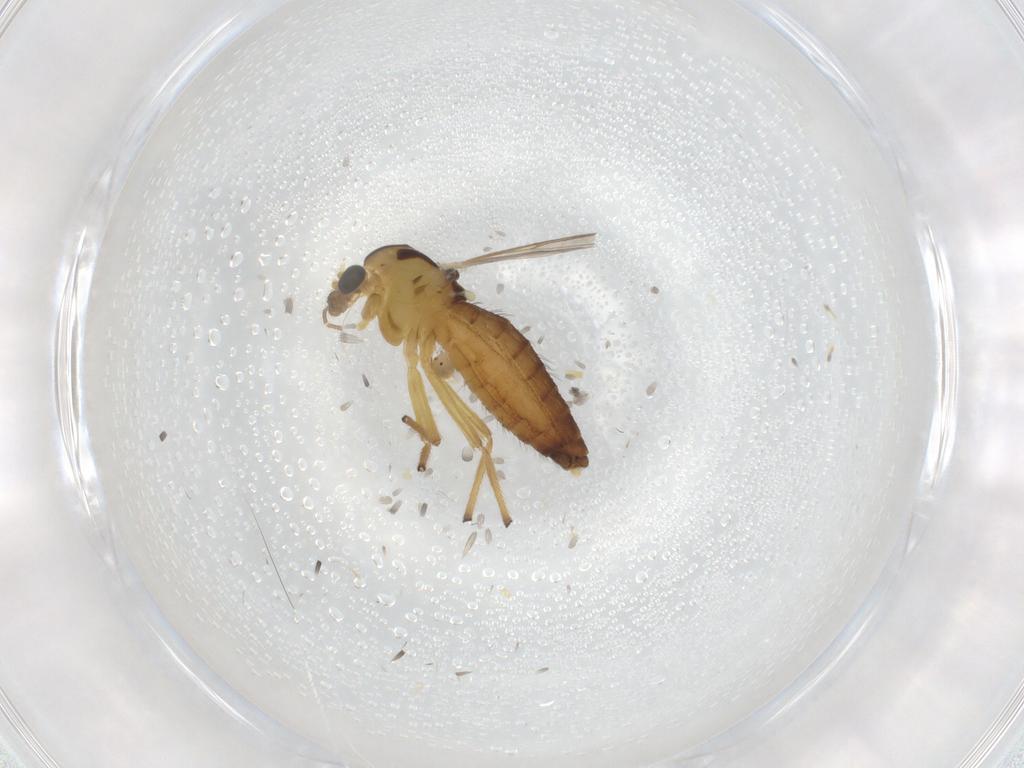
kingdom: Animalia
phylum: Arthropoda
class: Insecta
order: Diptera
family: Chironomidae
